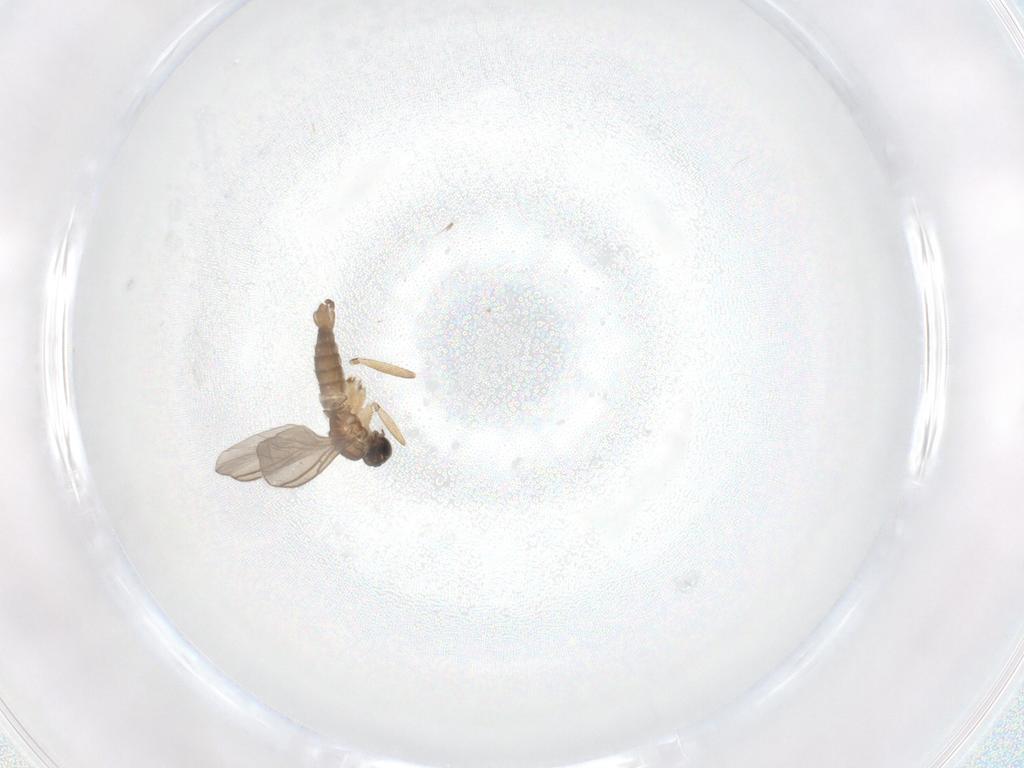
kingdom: Animalia
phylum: Arthropoda
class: Insecta
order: Diptera
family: Chironomidae
